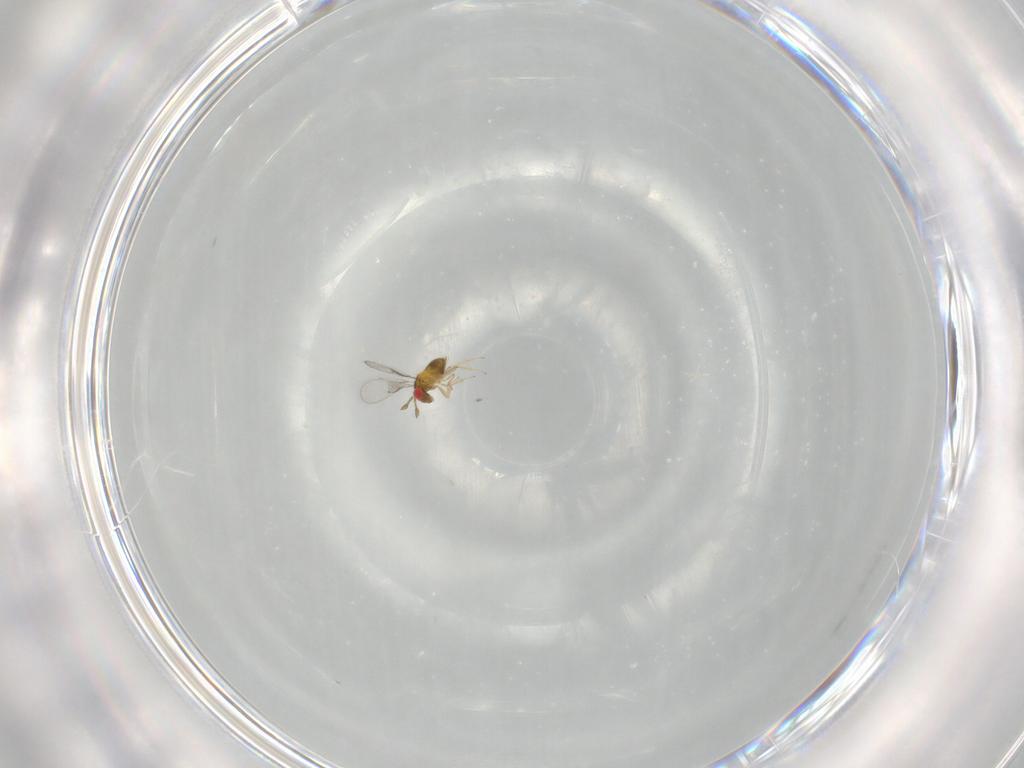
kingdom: Animalia
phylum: Arthropoda
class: Insecta
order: Hymenoptera
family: Trichogrammatidae
